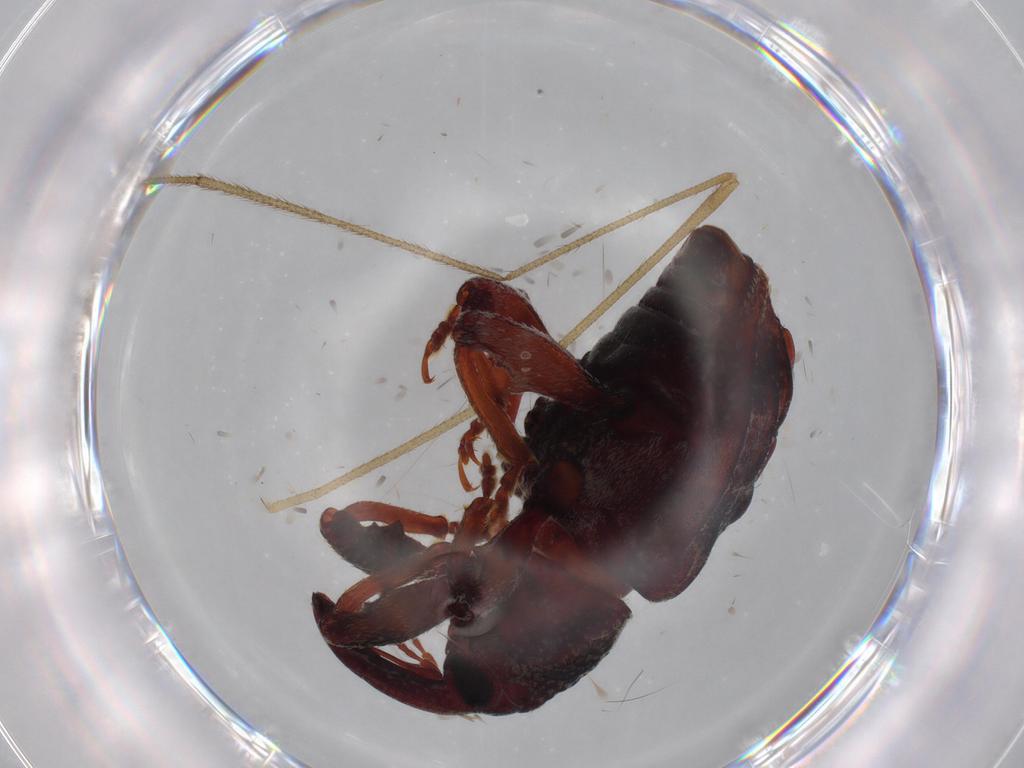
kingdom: Animalia
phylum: Arthropoda
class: Insecta
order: Coleoptera
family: Curculionidae
